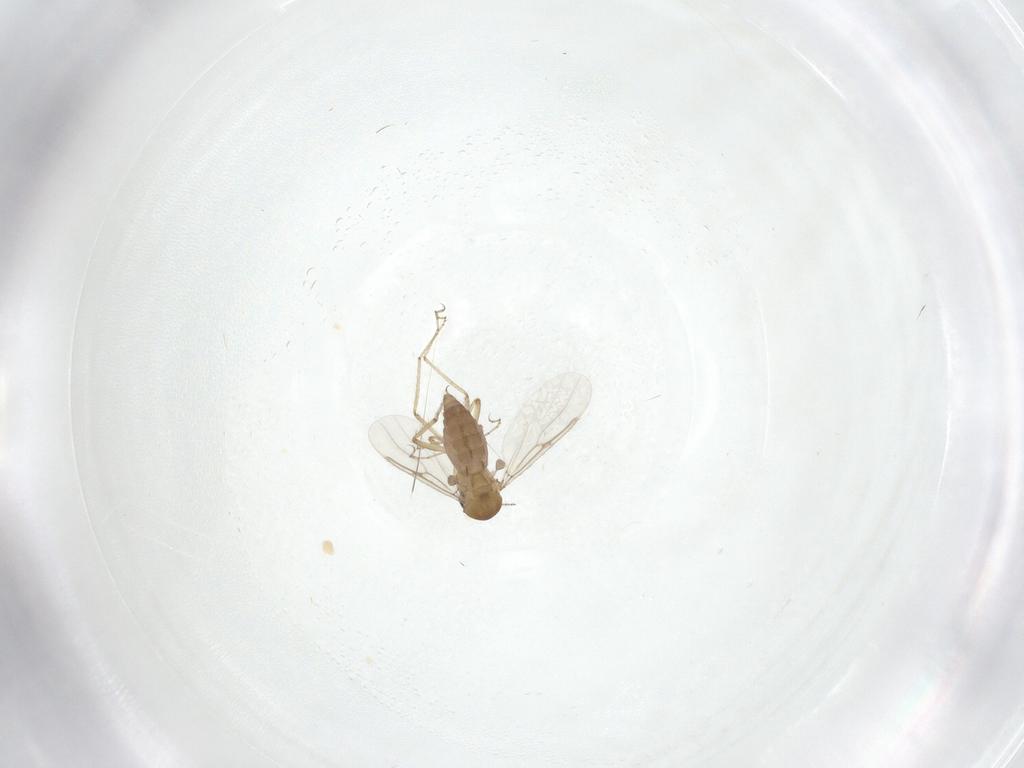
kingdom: Animalia
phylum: Arthropoda
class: Insecta
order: Diptera
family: Ceratopogonidae
